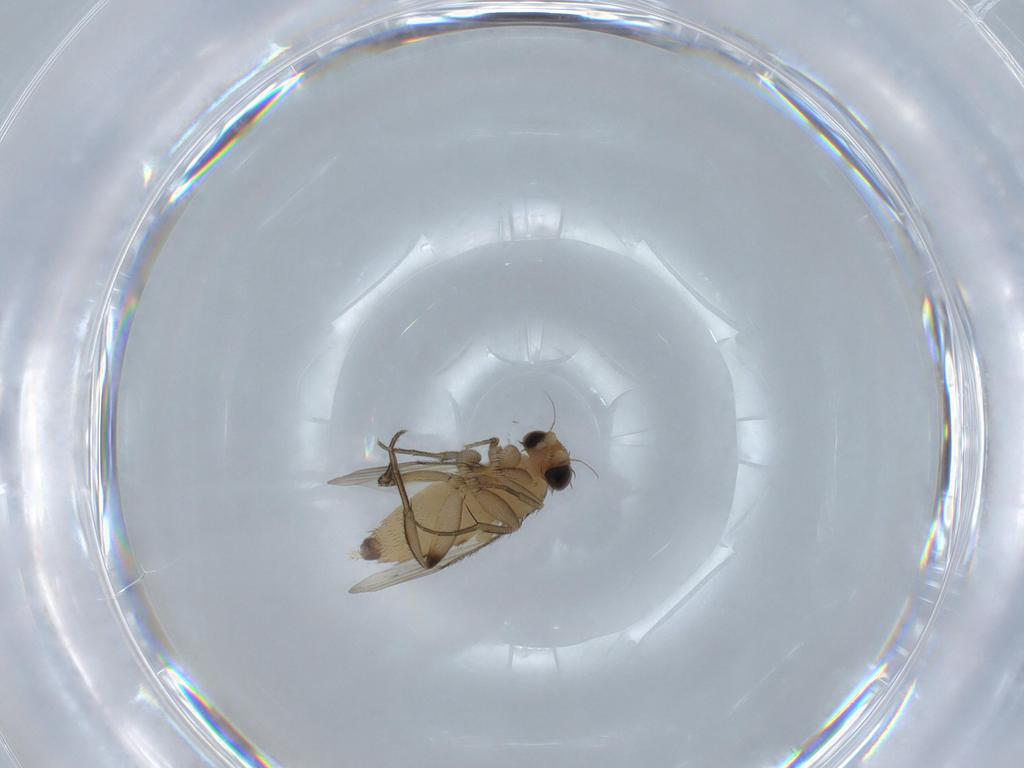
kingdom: Animalia
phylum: Arthropoda
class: Insecta
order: Diptera
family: Phoridae
